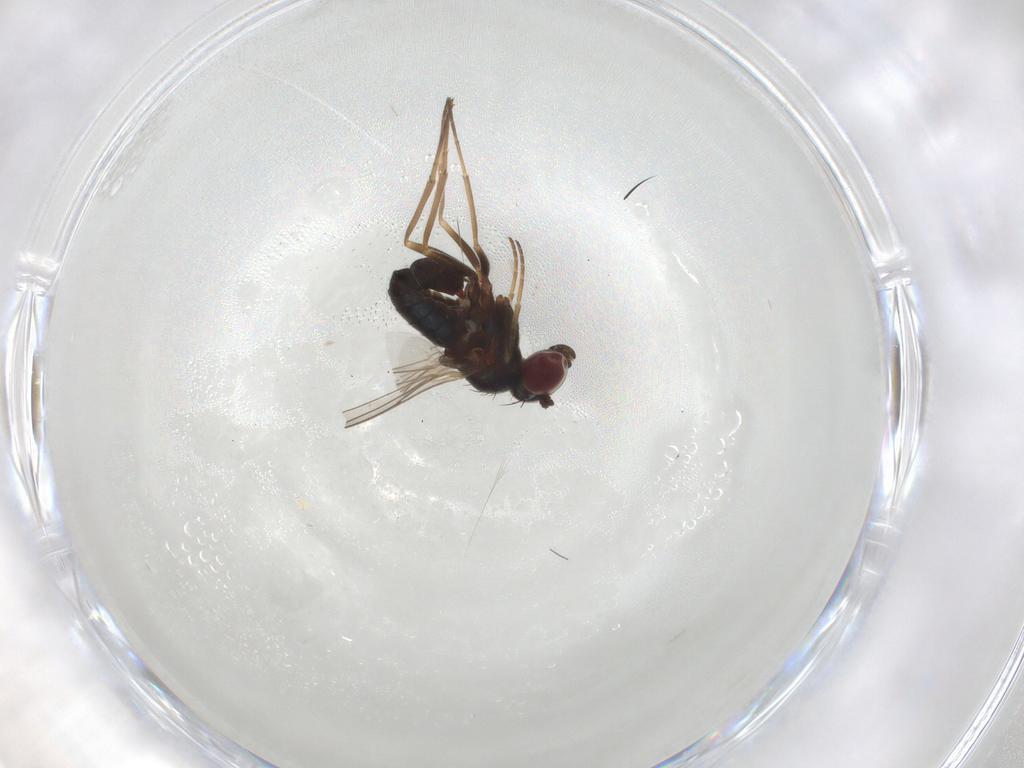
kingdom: Animalia
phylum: Arthropoda
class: Insecta
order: Diptera
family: Dolichopodidae
